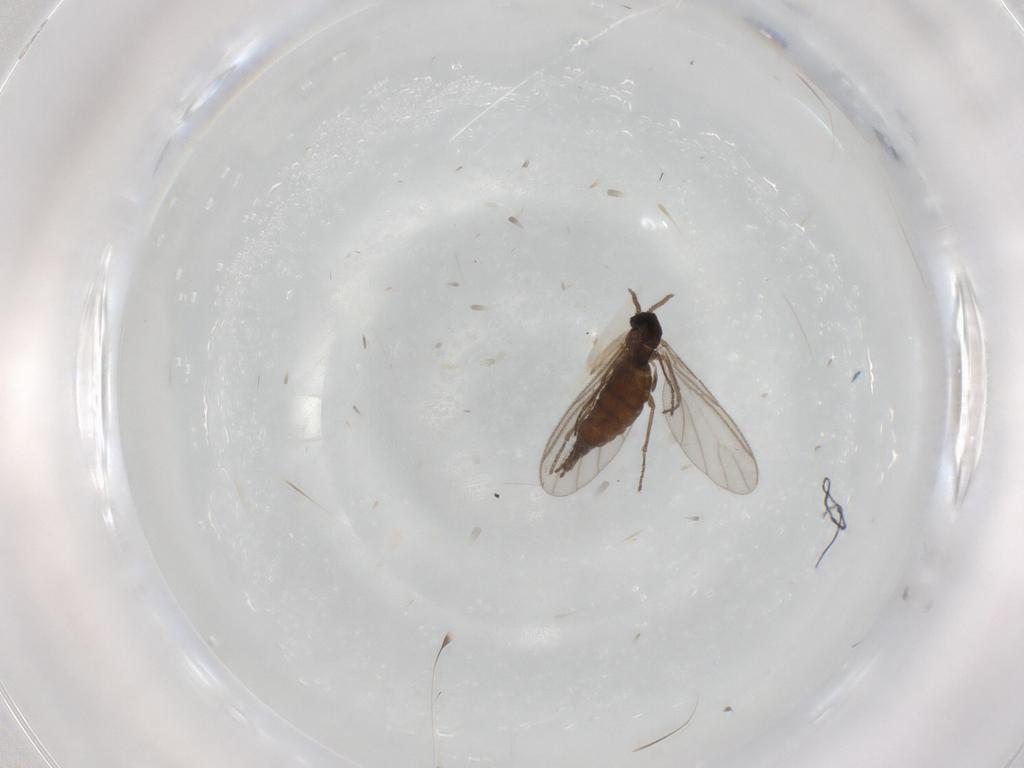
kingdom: Animalia
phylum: Arthropoda
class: Insecta
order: Diptera
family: Sciaridae
